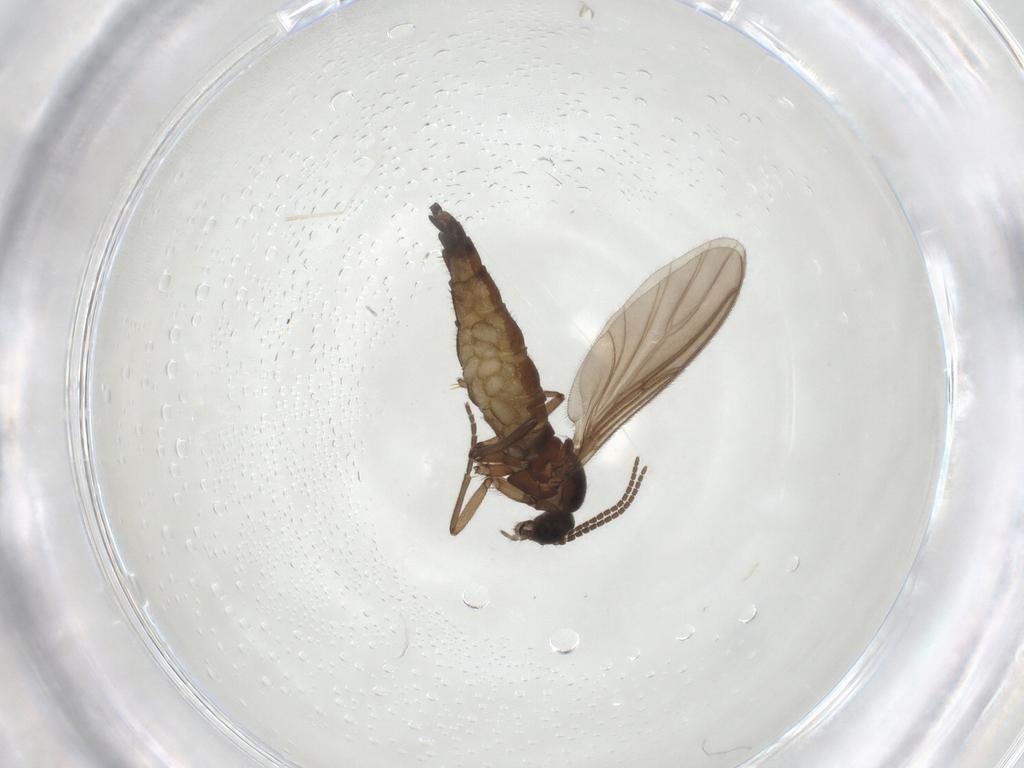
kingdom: Animalia
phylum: Arthropoda
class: Insecta
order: Diptera
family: Cecidomyiidae
